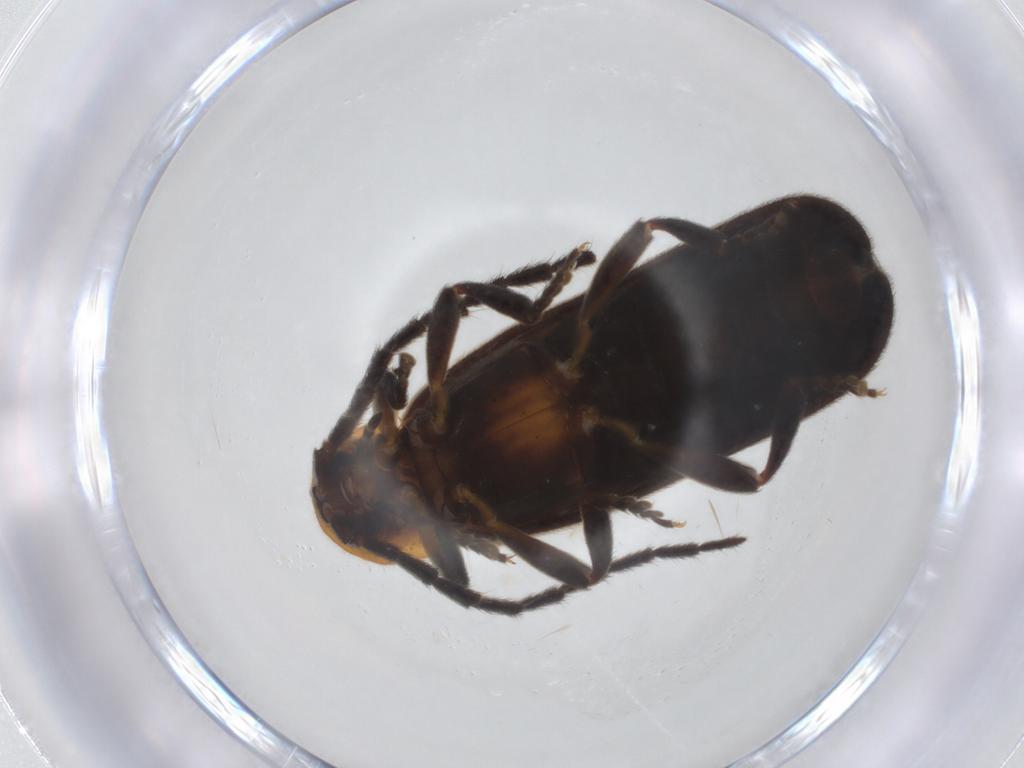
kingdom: Animalia
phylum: Arthropoda
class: Insecta
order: Coleoptera
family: Lycidae
